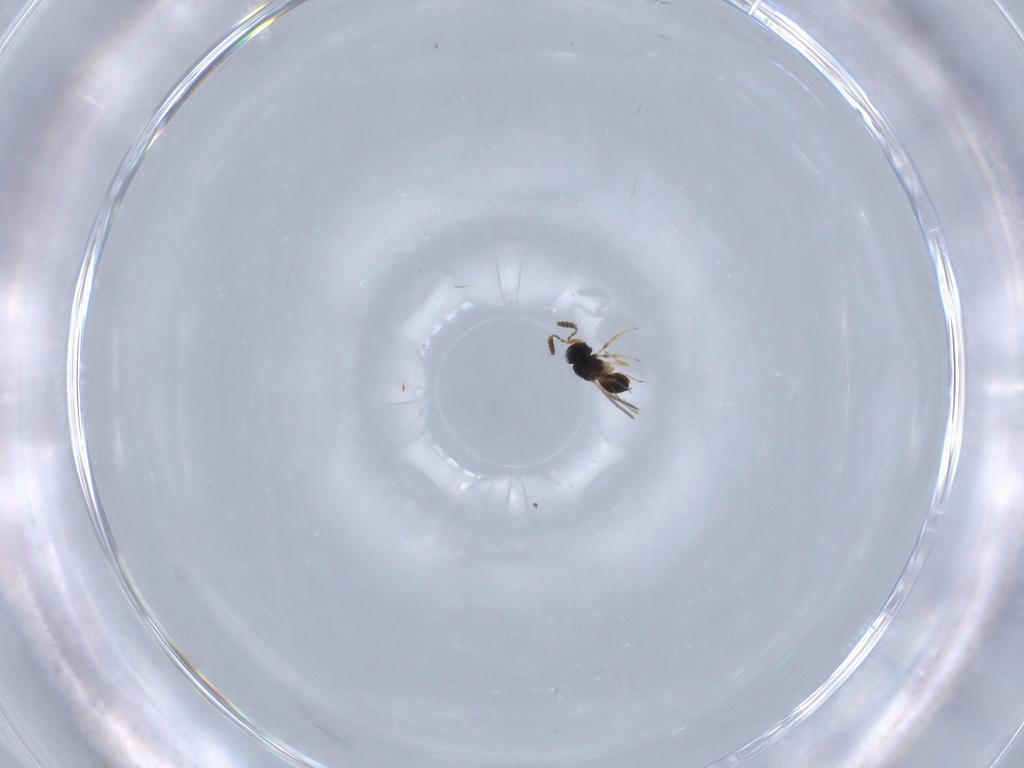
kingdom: Animalia
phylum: Arthropoda
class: Insecta
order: Hymenoptera
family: Scelionidae
